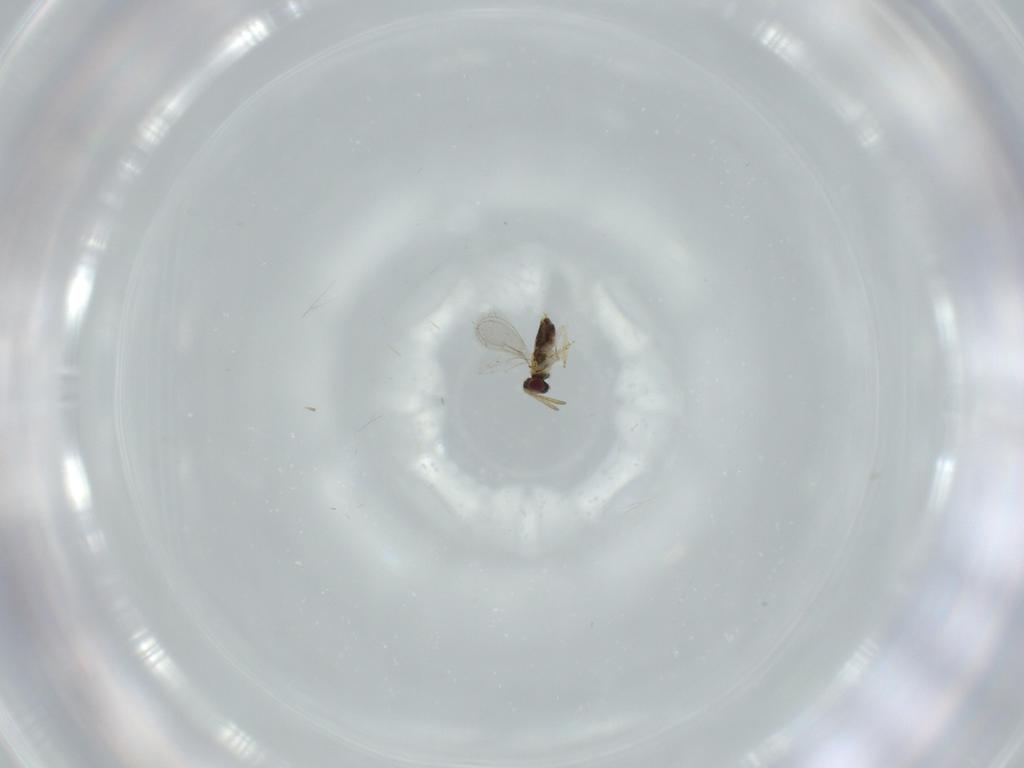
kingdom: Animalia
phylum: Arthropoda
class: Insecta
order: Hymenoptera
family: Aphelinidae
